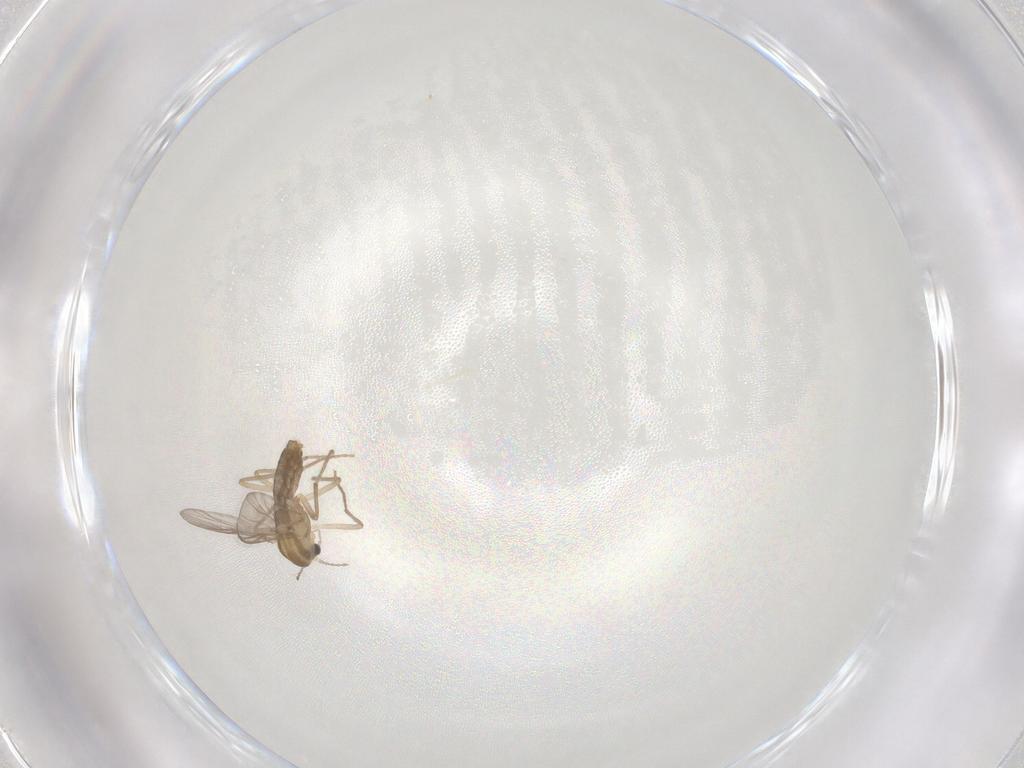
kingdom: Animalia
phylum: Arthropoda
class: Insecta
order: Diptera
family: Chironomidae
